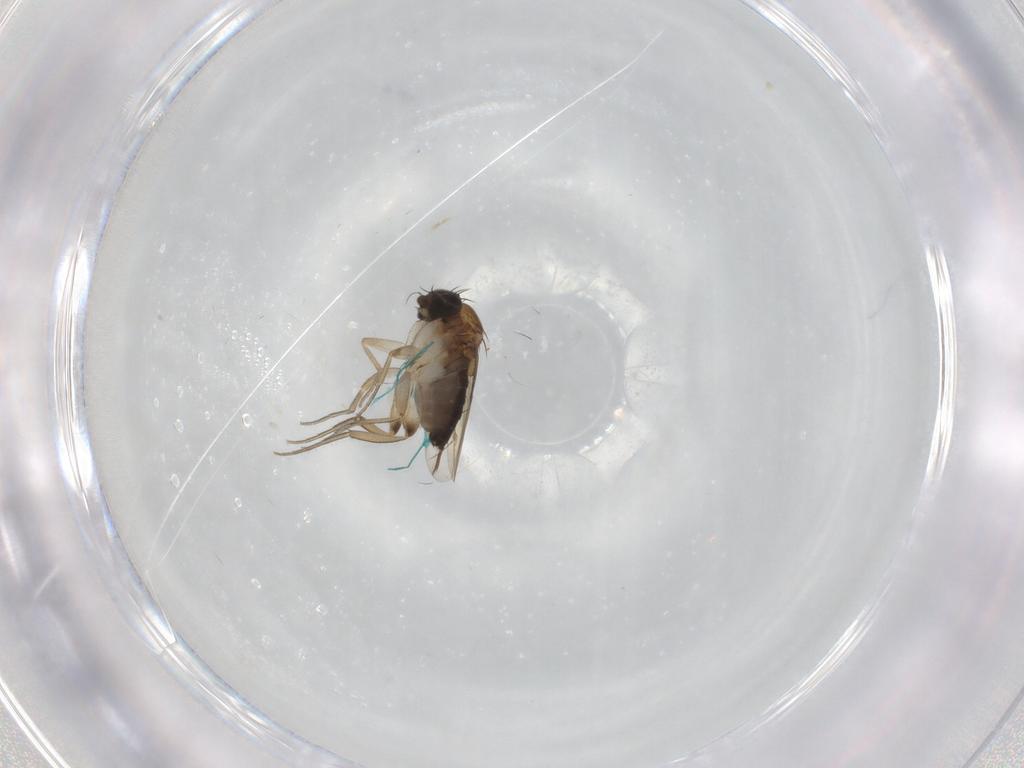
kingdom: Animalia
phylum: Arthropoda
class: Insecta
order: Diptera
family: Phoridae
